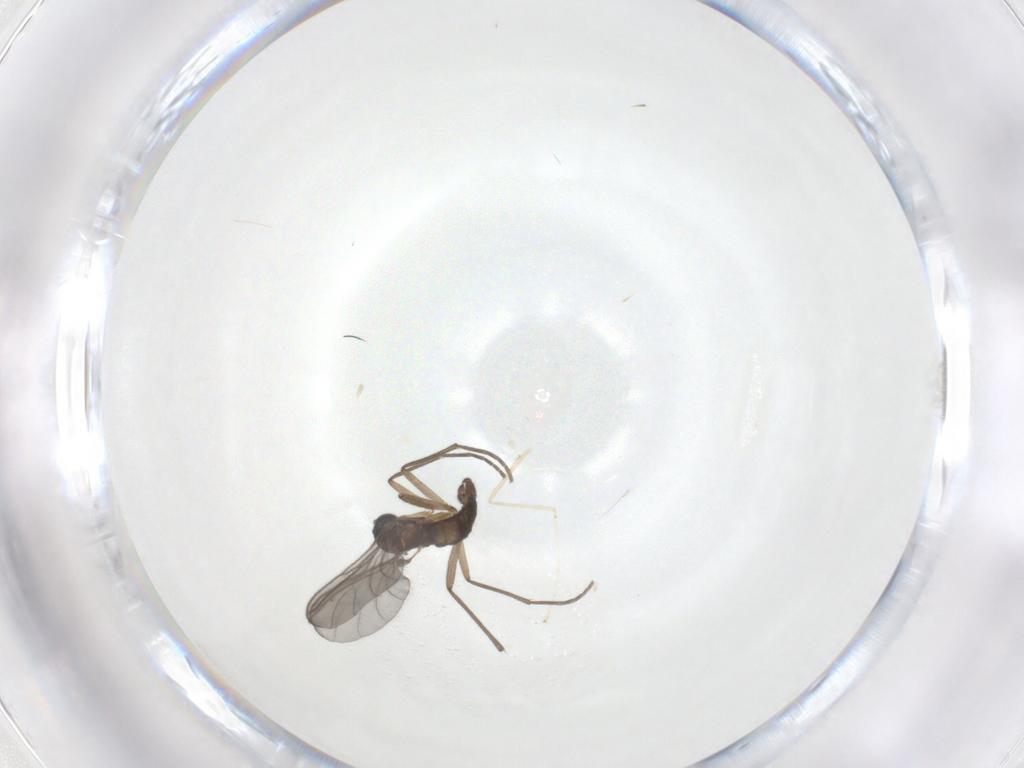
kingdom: Animalia
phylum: Arthropoda
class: Insecta
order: Diptera
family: Sciaridae
